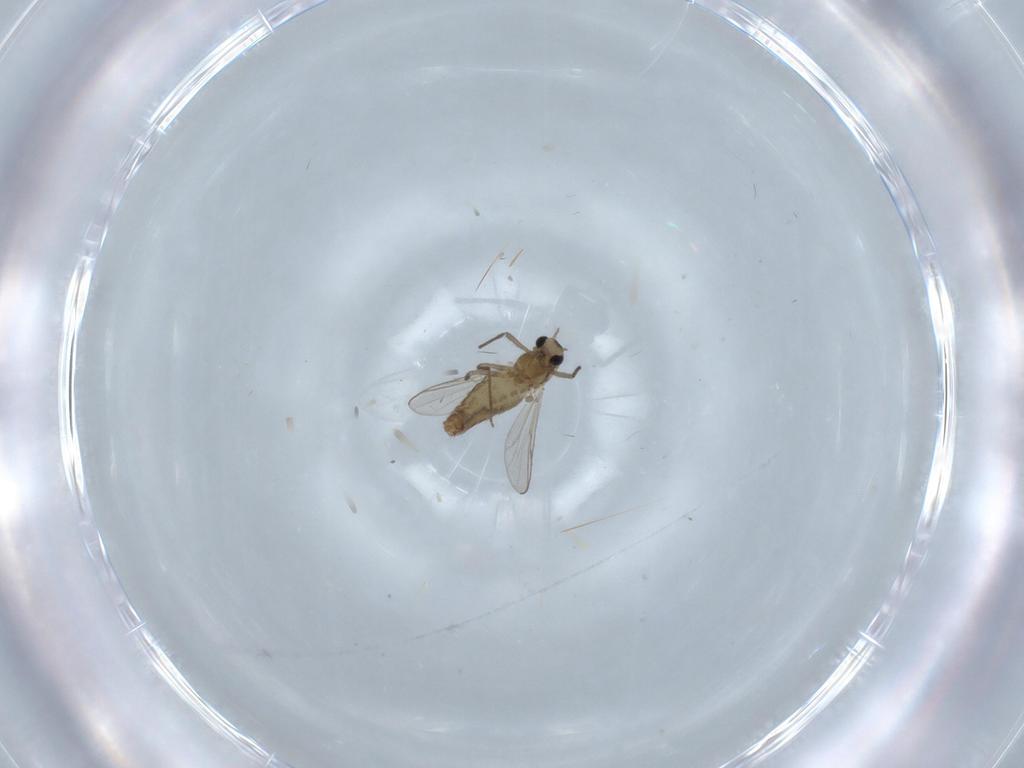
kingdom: Animalia
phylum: Arthropoda
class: Insecta
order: Diptera
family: Chironomidae
